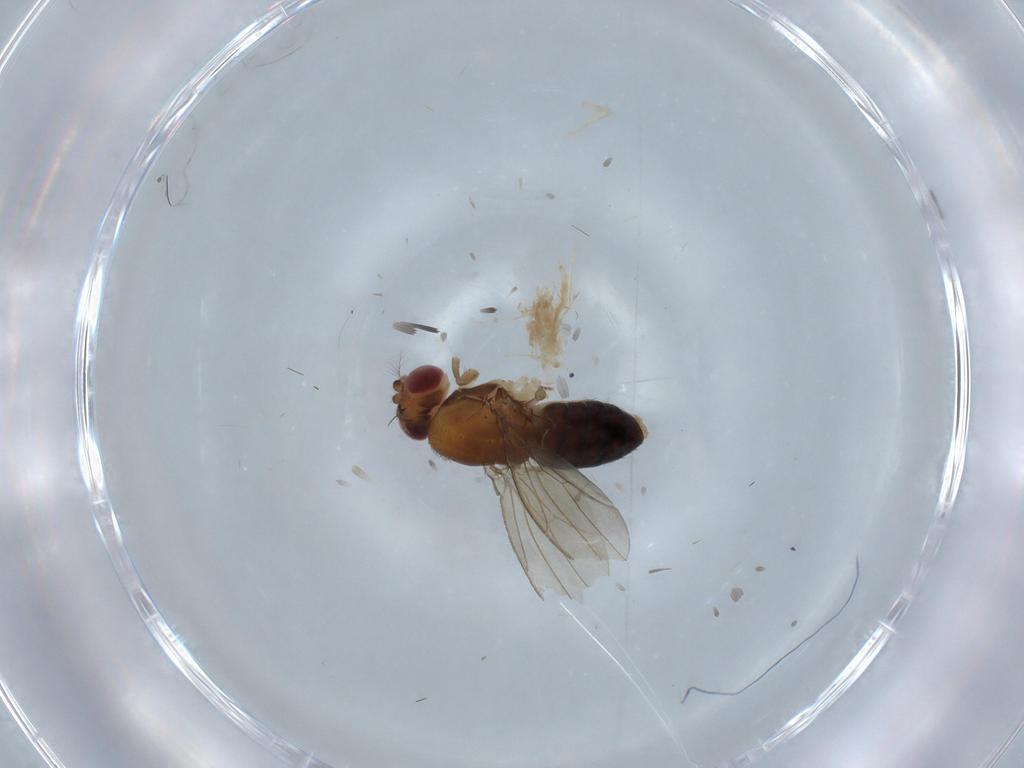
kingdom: Animalia
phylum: Arthropoda
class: Insecta
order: Diptera
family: Drosophilidae
